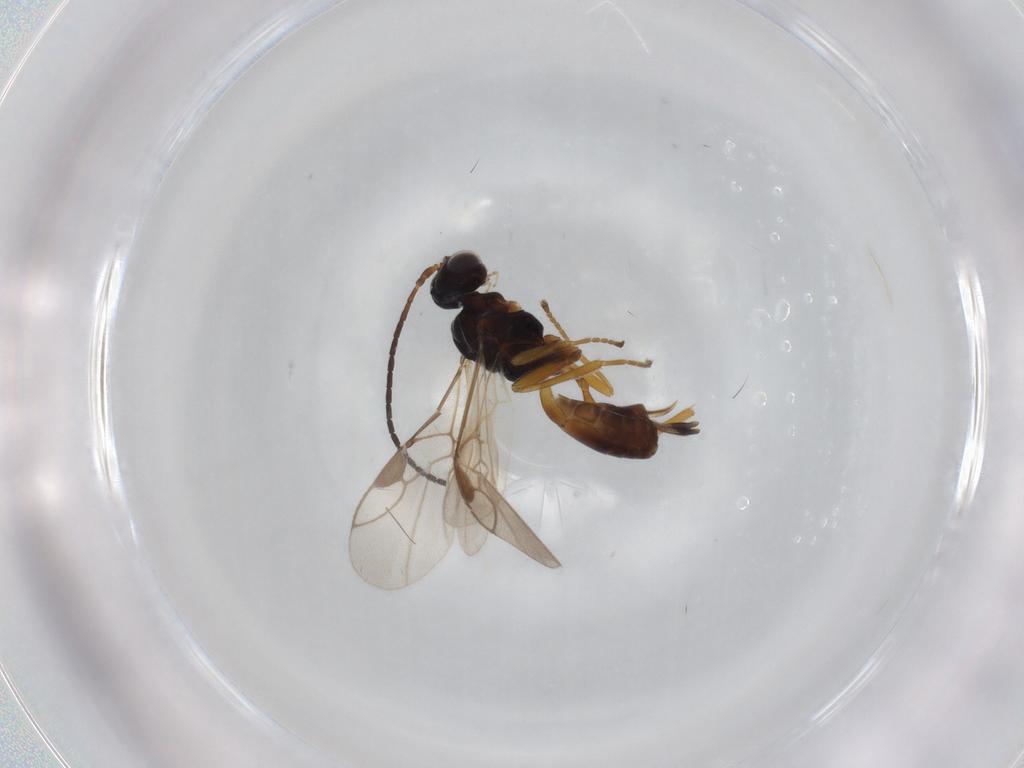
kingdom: Animalia
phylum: Arthropoda
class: Insecta
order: Hymenoptera
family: Braconidae
